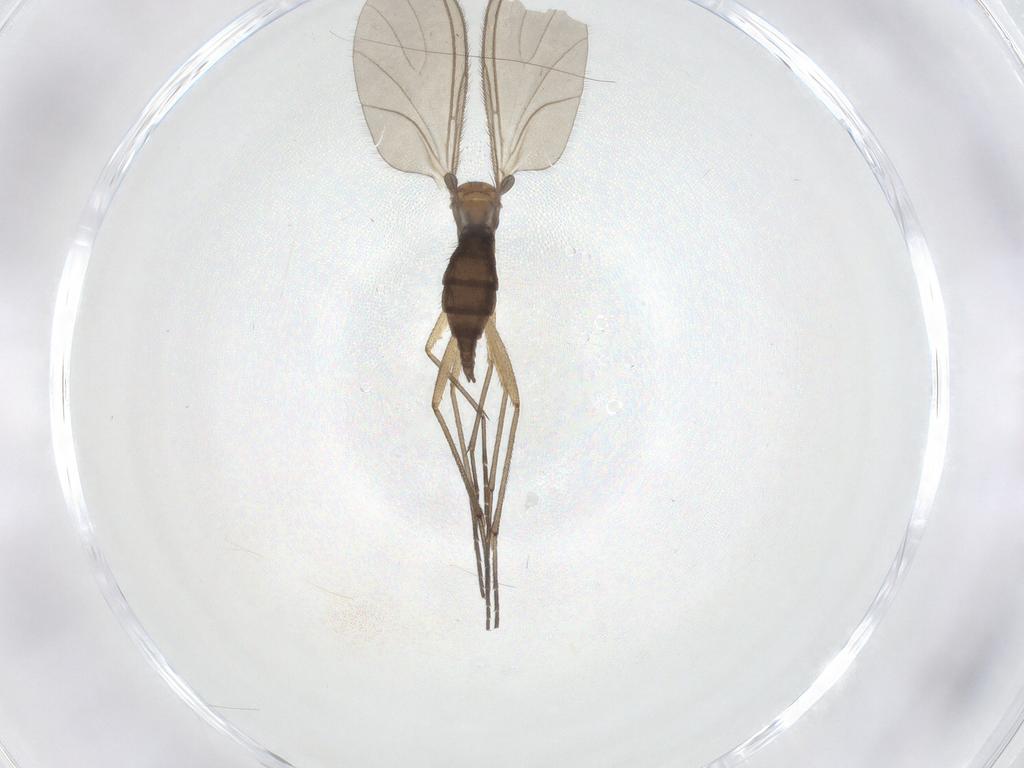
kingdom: Animalia
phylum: Arthropoda
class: Insecta
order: Diptera
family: Sciaridae
